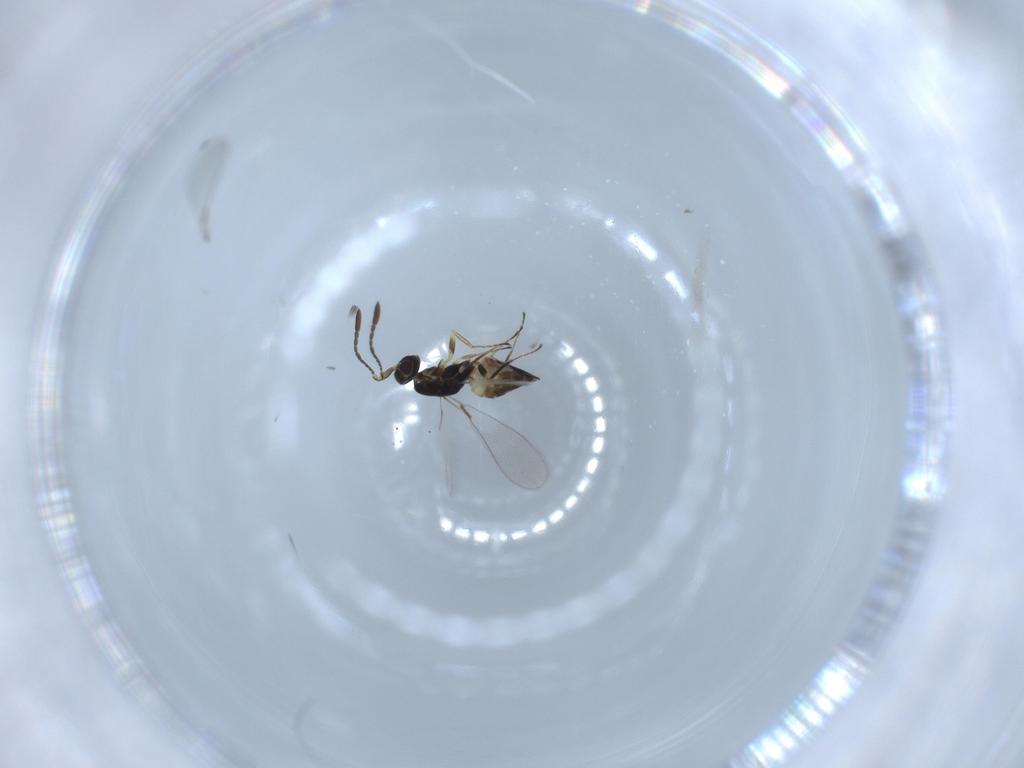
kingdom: Animalia
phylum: Arthropoda
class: Insecta
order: Hymenoptera
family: Mymaridae
